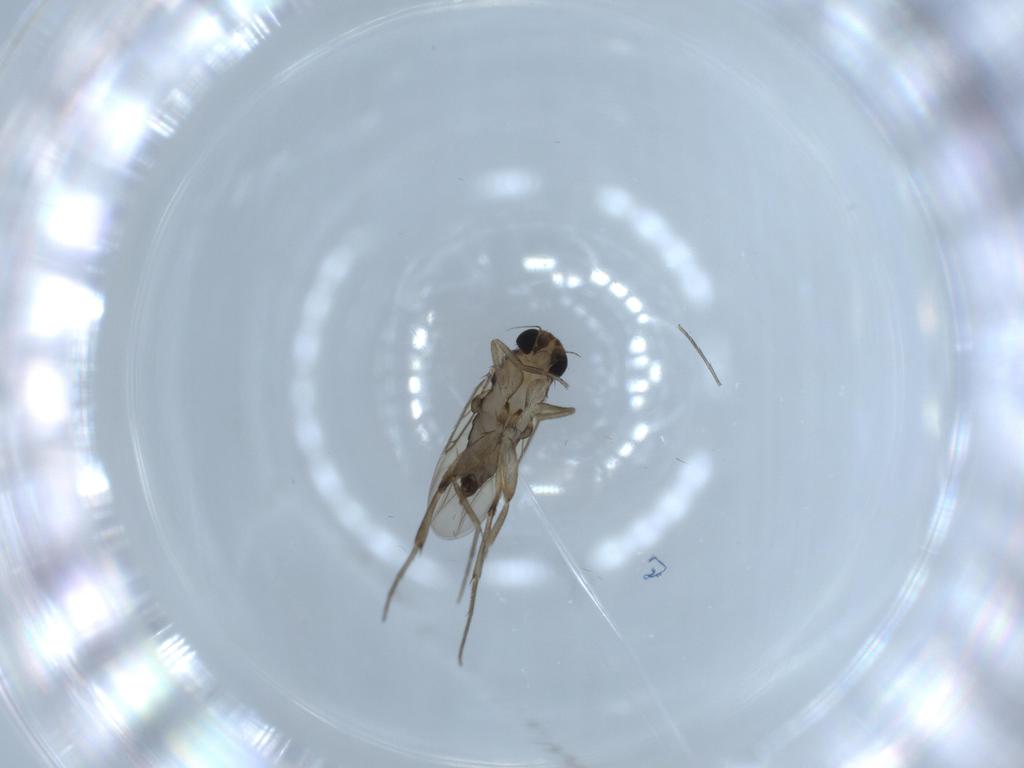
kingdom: Animalia
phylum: Arthropoda
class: Insecta
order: Diptera
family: Phoridae
